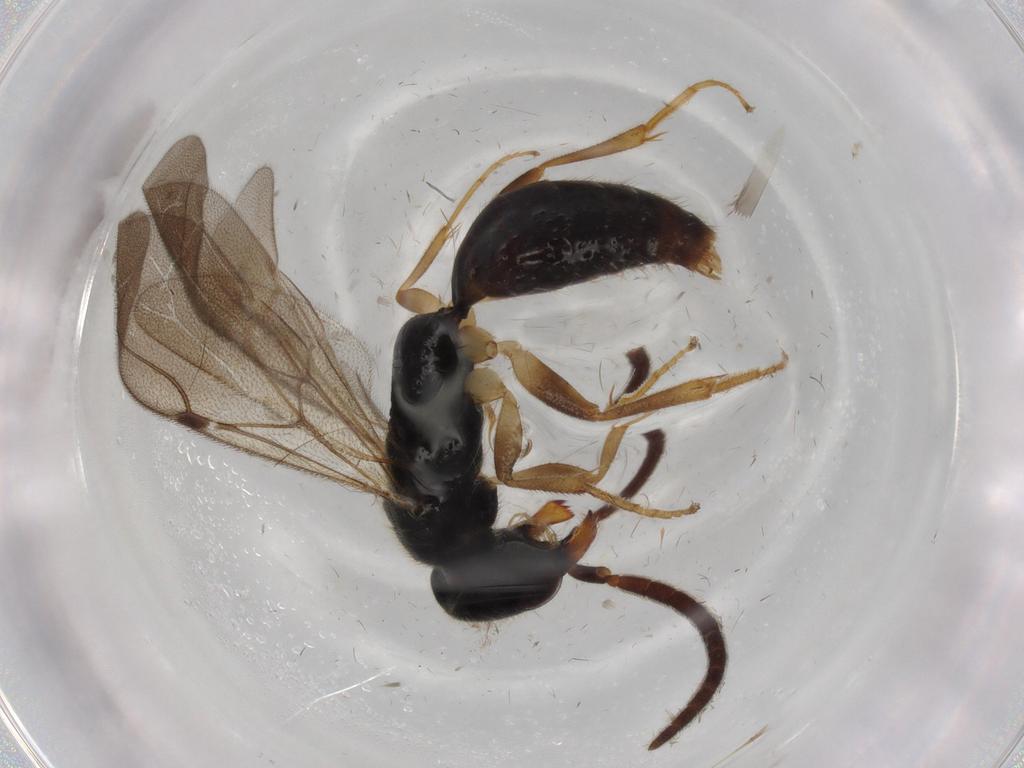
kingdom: Animalia
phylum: Arthropoda
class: Insecta
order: Hymenoptera
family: Bethylidae
